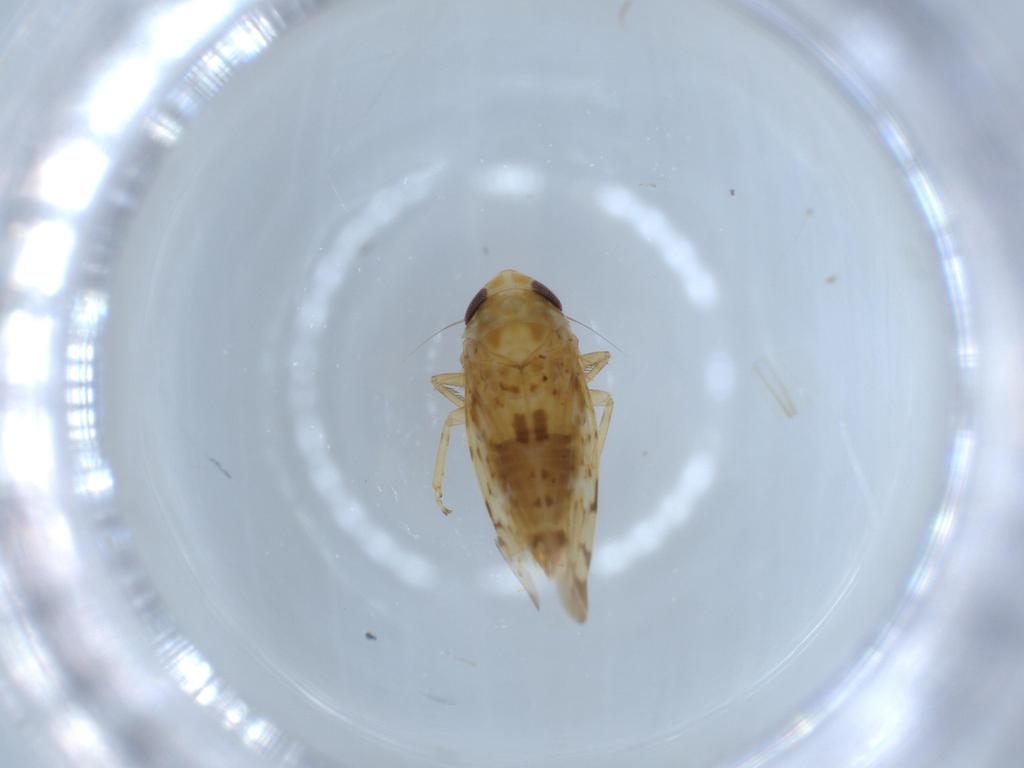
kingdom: Animalia
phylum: Arthropoda
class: Insecta
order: Hemiptera
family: Cicadellidae
